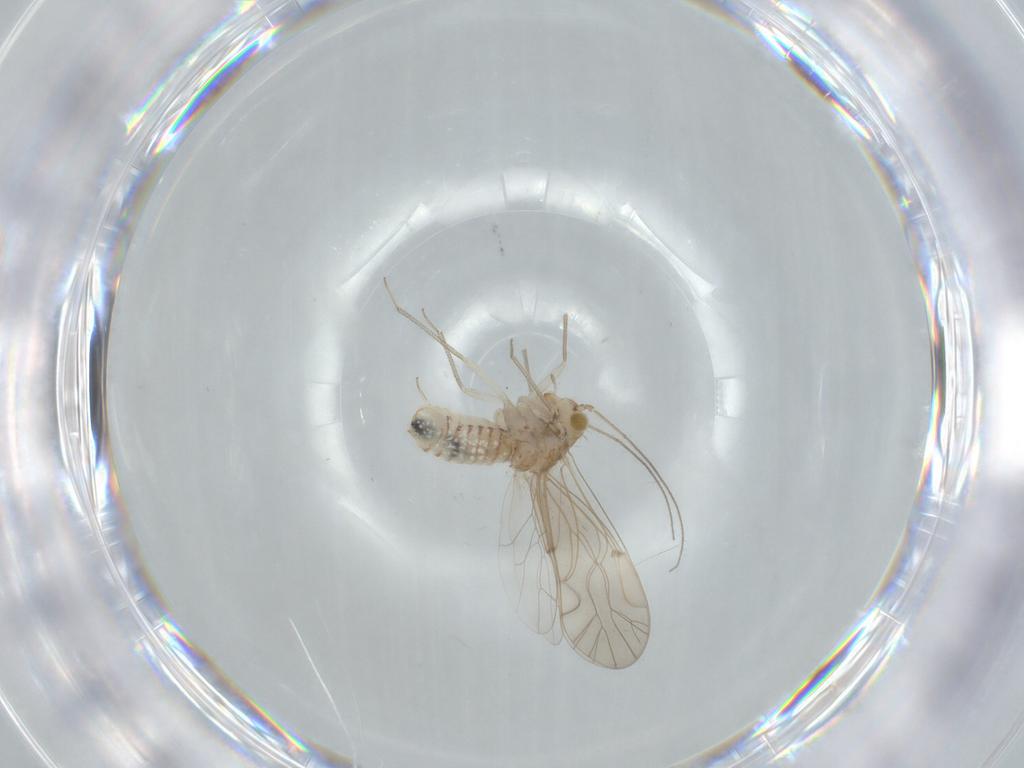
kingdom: Animalia
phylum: Arthropoda
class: Insecta
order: Psocodea
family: Lachesillidae
